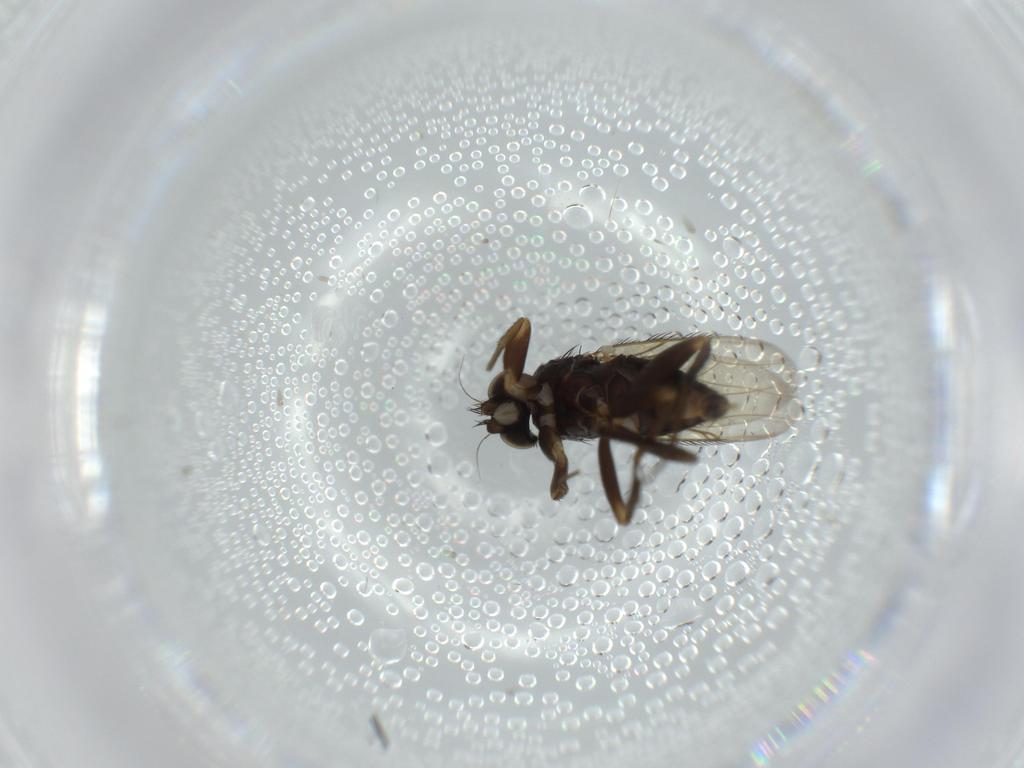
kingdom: Animalia
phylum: Arthropoda
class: Insecta
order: Diptera
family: Phoridae
